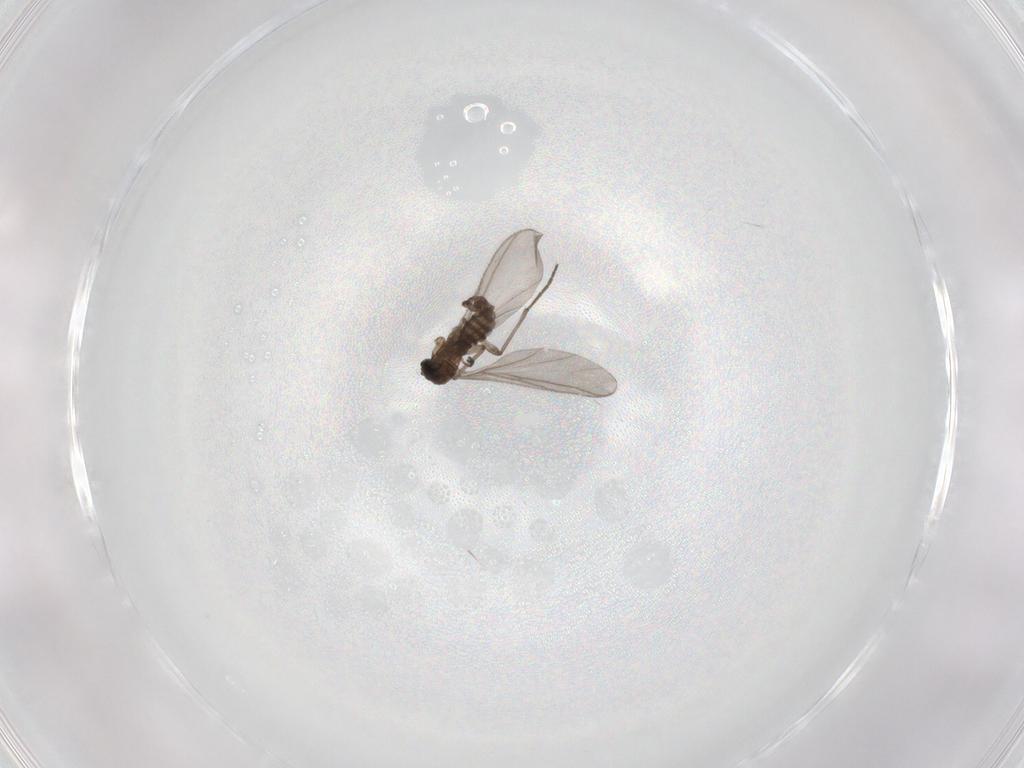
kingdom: Animalia
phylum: Arthropoda
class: Insecta
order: Diptera
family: Sciaridae
